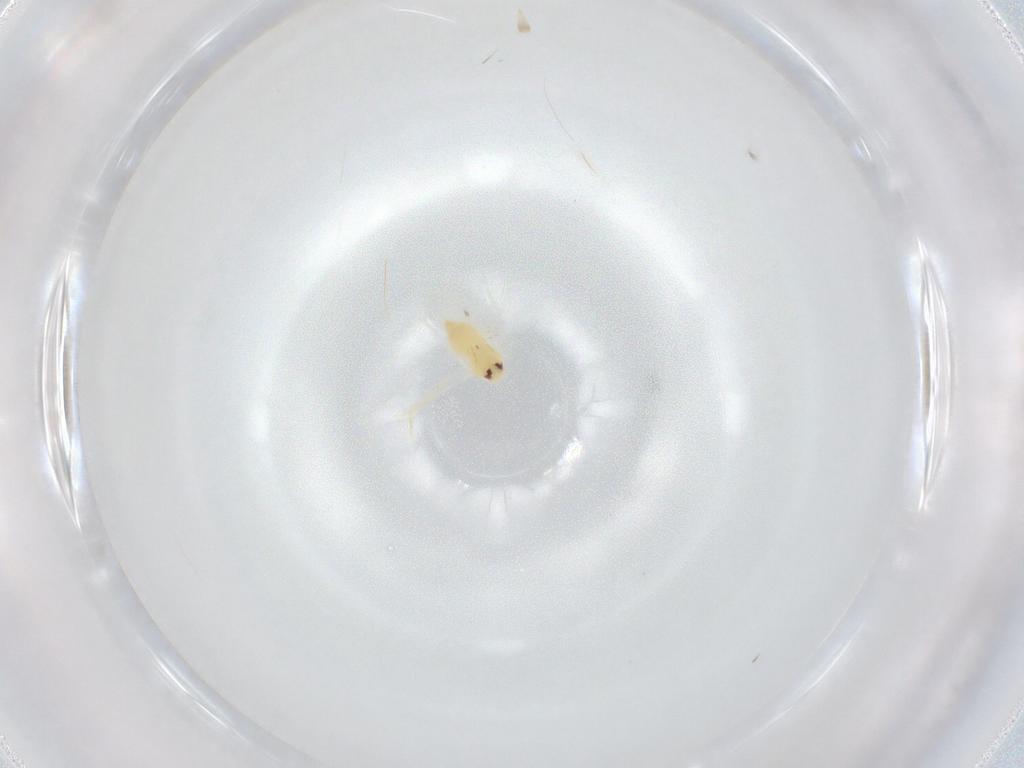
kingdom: Animalia
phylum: Arthropoda
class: Insecta
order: Hemiptera
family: Aleyrodidae
